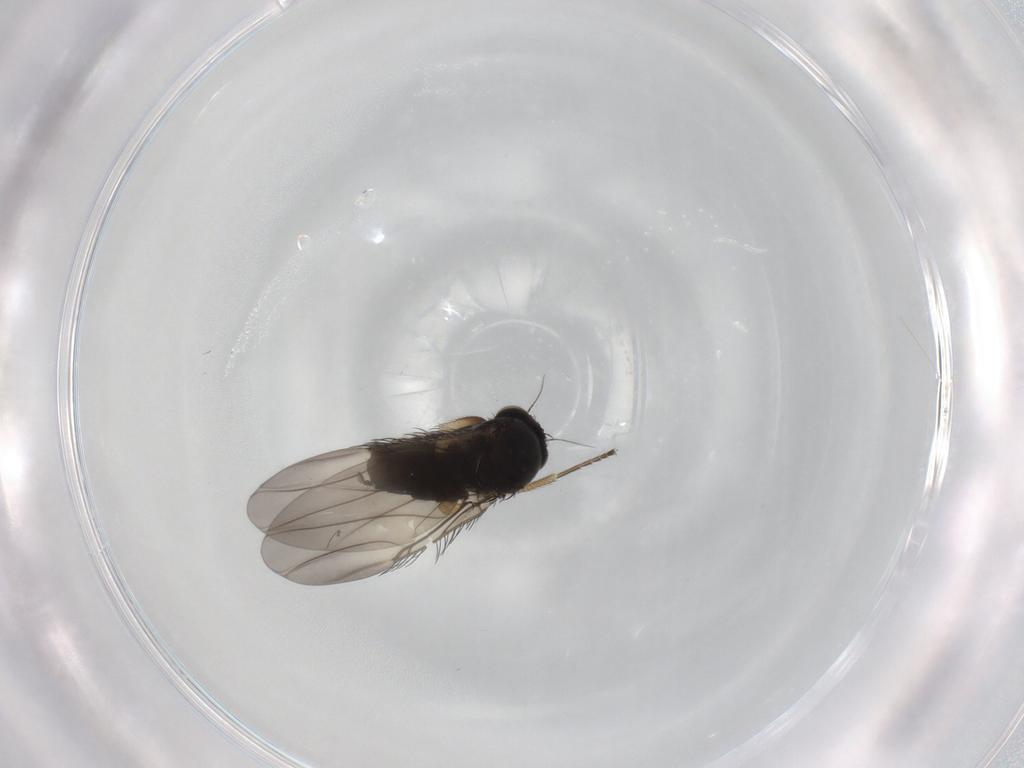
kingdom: Animalia
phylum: Arthropoda
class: Insecta
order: Diptera
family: Phoridae
